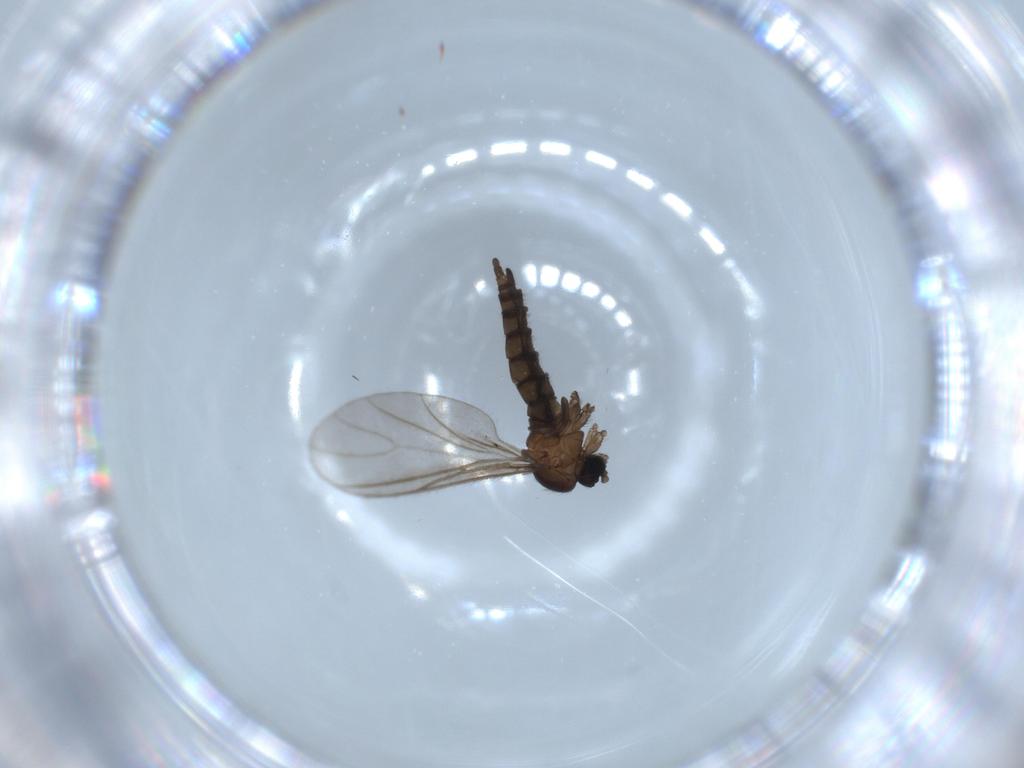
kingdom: Animalia
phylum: Arthropoda
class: Insecta
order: Diptera
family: Sciaridae
